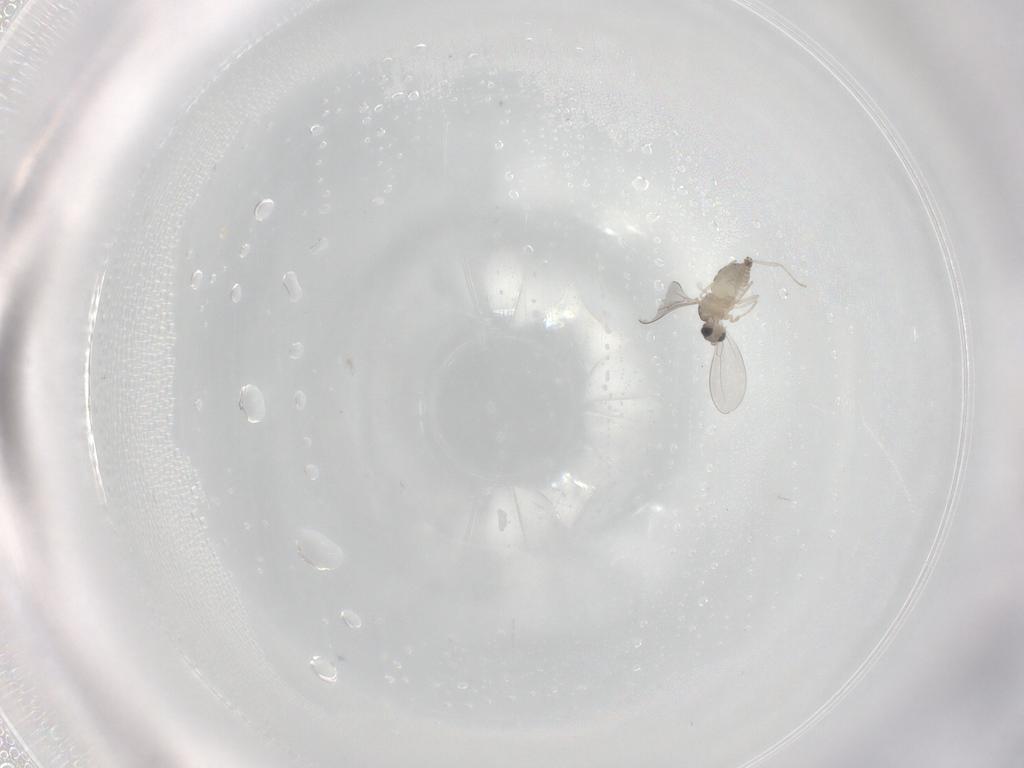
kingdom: Animalia
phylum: Arthropoda
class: Insecta
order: Diptera
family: Cecidomyiidae
